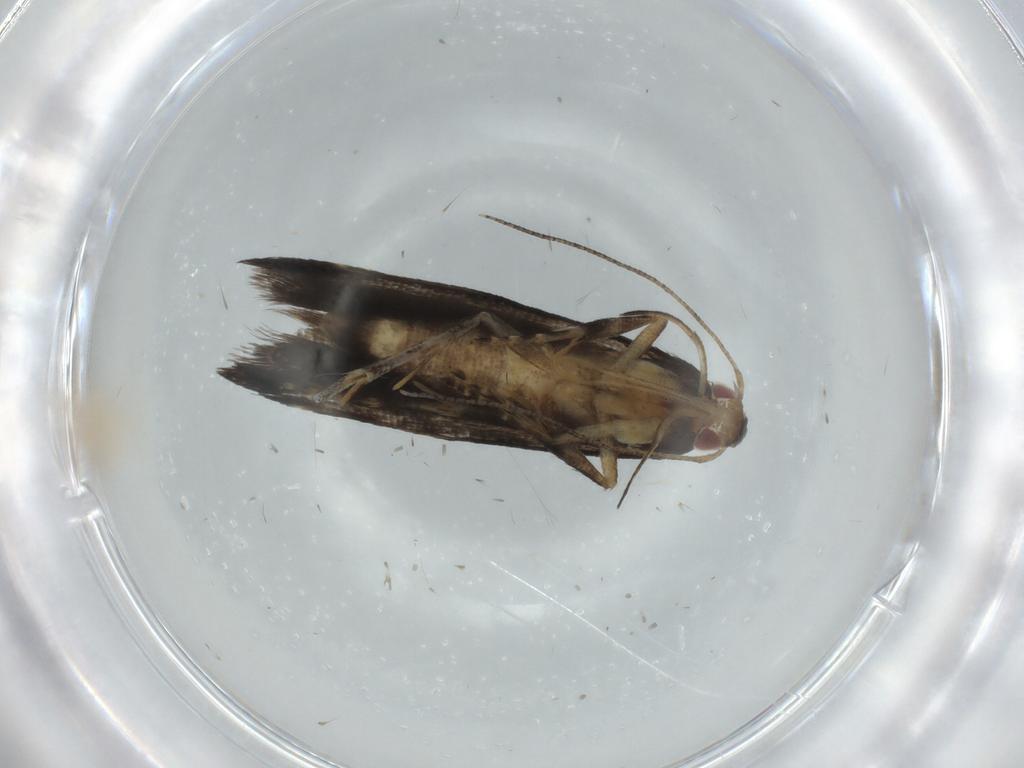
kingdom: Animalia
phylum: Arthropoda
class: Insecta
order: Lepidoptera
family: Gelechiidae
